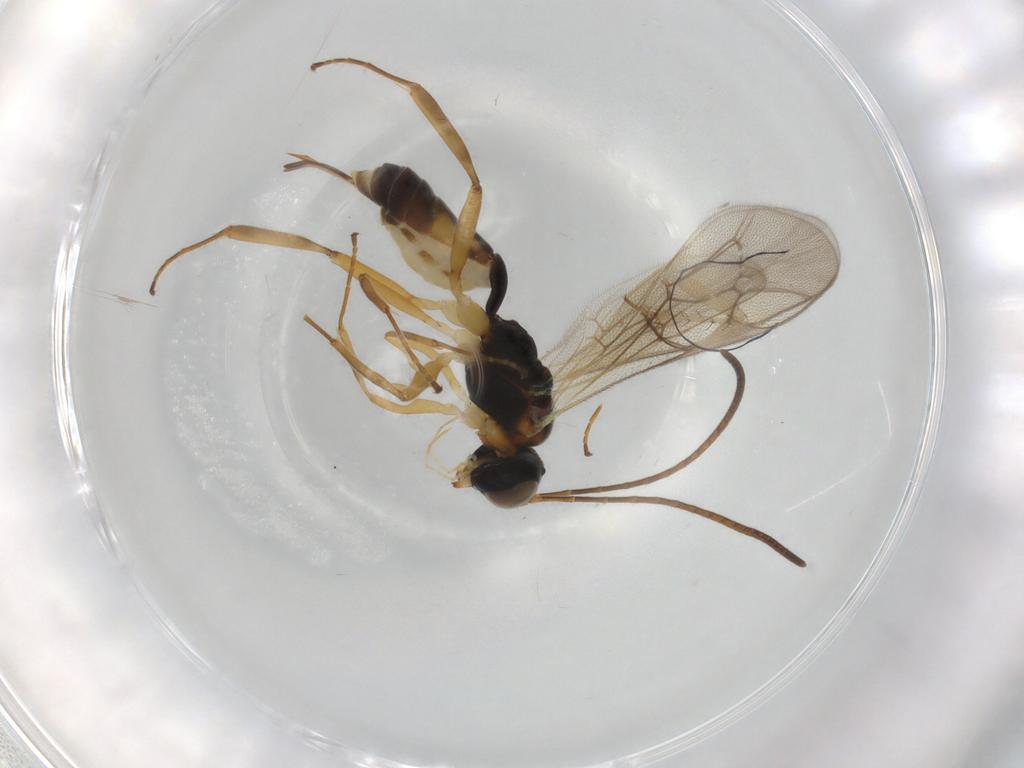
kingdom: Animalia
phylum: Arthropoda
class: Insecta
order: Hymenoptera
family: Ichneumonidae
